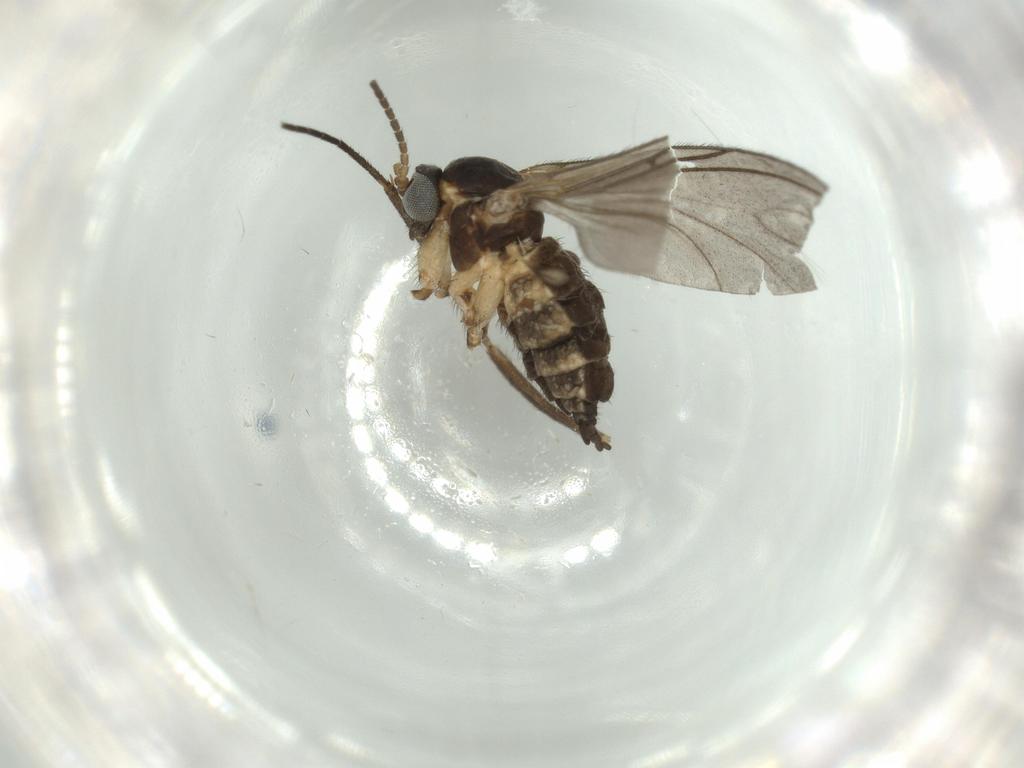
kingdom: Animalia
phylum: Arthropoda
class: Insecta
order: Diptera
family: Sciaridae
